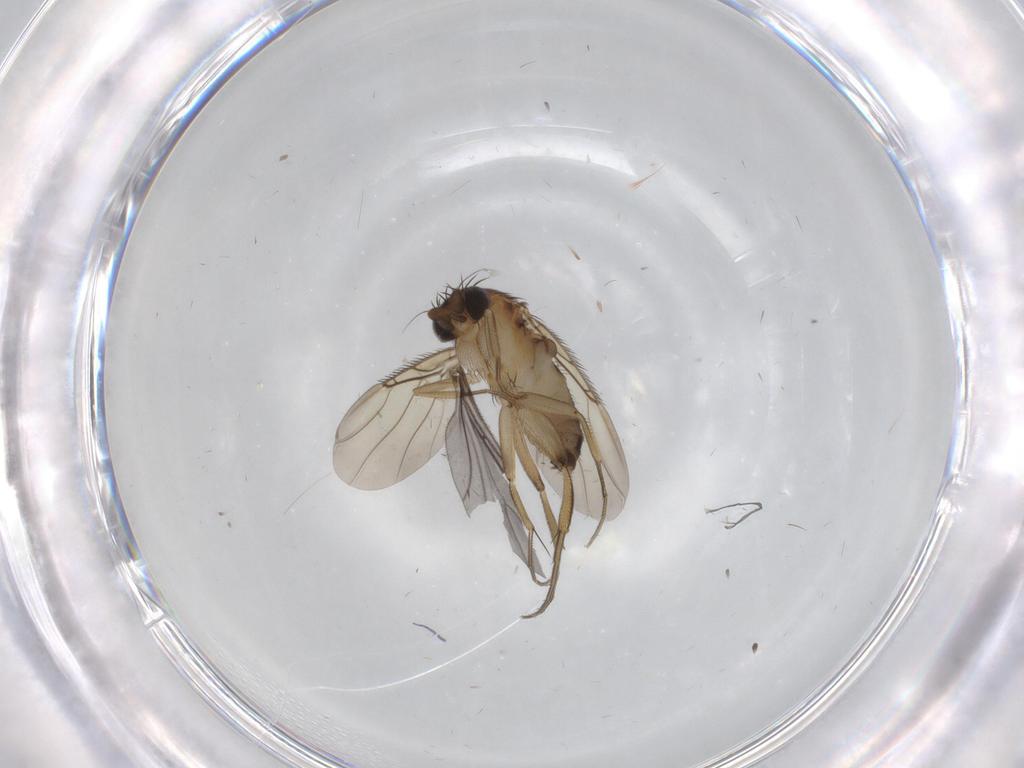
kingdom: Animalia
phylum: Arthropoda
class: Insecta
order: Diptera
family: Phoridae
